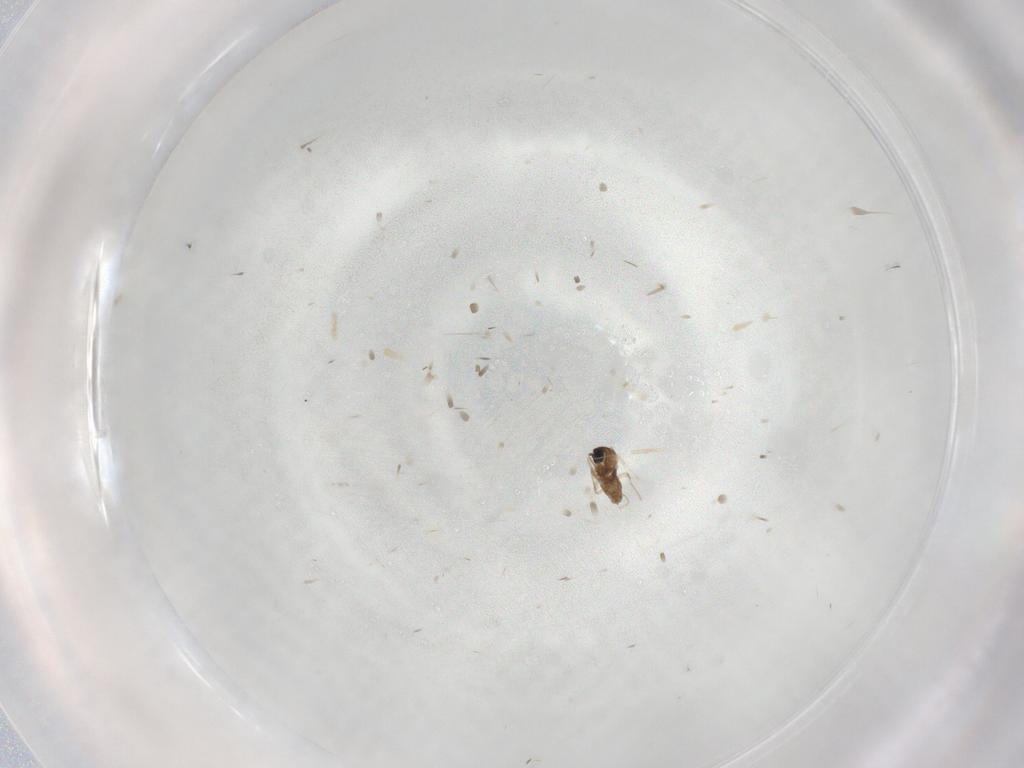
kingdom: Animalia
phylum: Arthropoda
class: Insecta
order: Diptera
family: Cecidomyiidae
